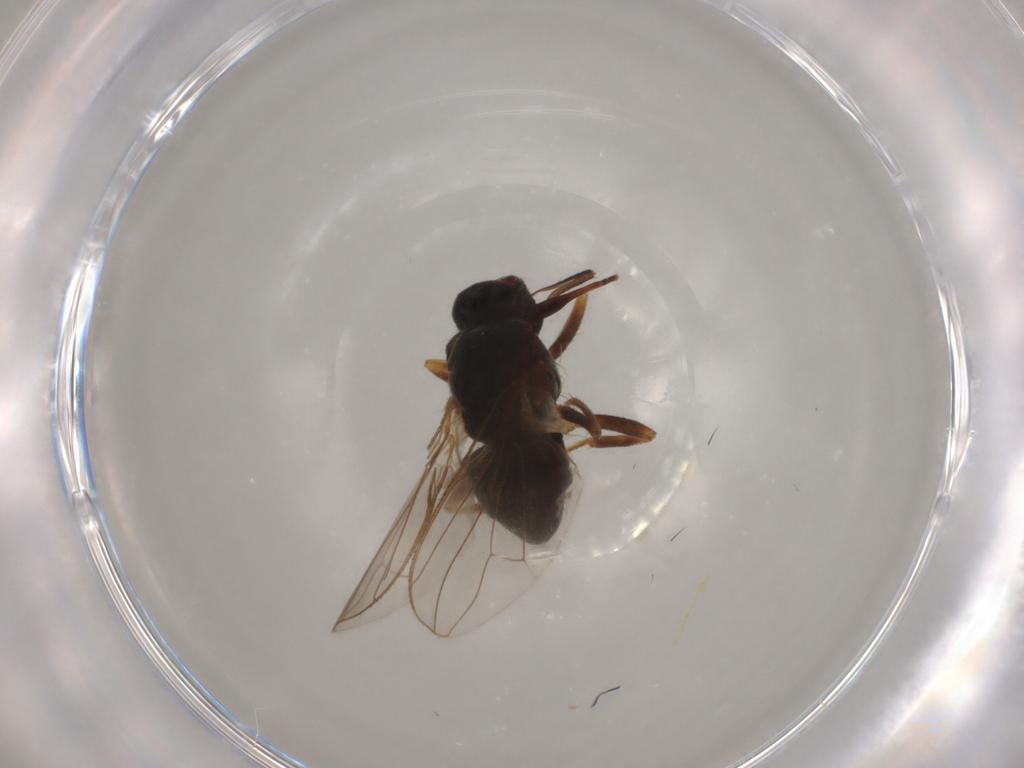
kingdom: Animalia
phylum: Arthropoda
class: Insecta
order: Diptera
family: Muscidae
